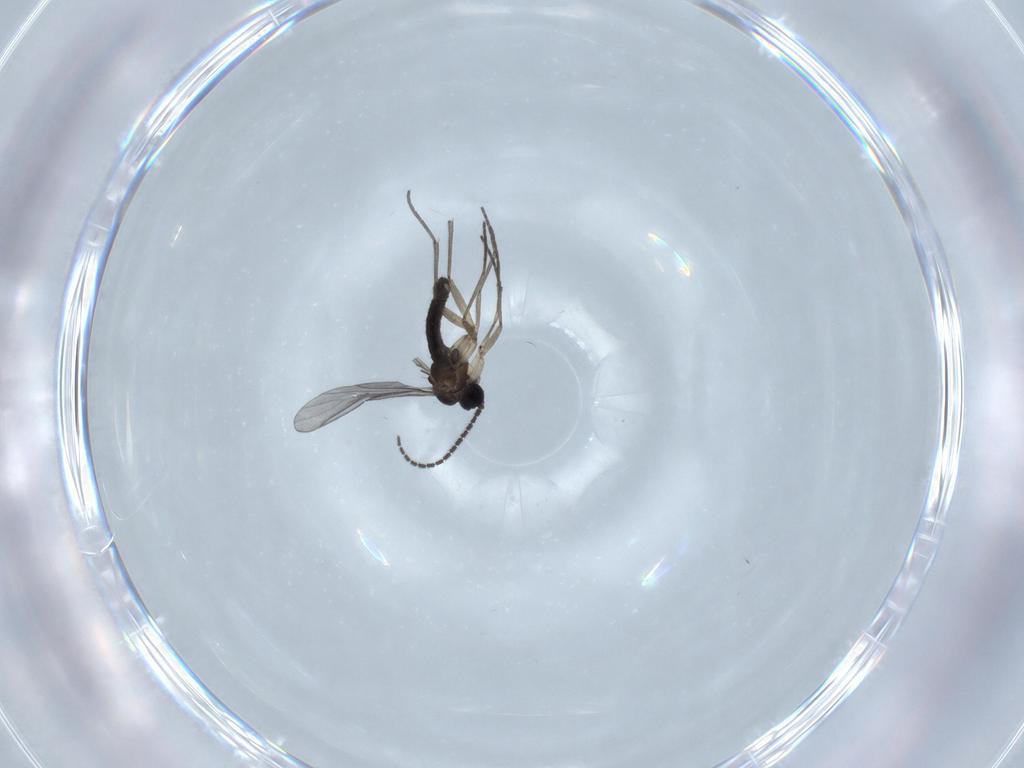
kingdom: Animalia
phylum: Arthropoda
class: Insecta
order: Diptera
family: Sciaridae
